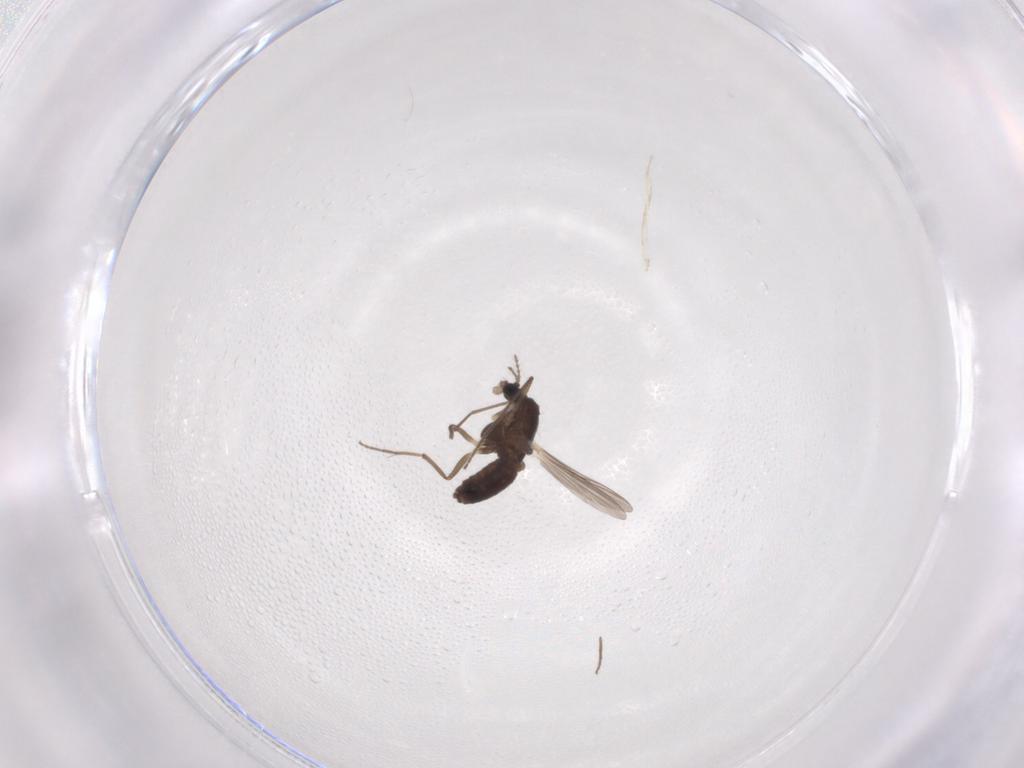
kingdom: Animalia
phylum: Arthropoda
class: Insecta
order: Diptera
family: Chironomidae
